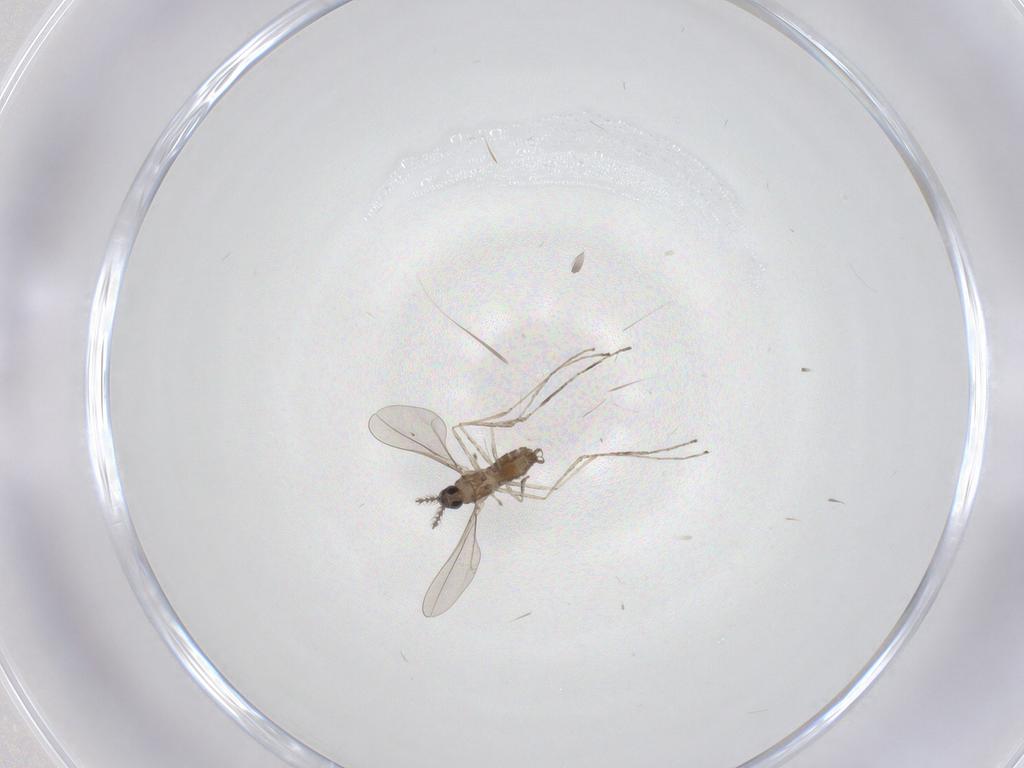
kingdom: Animalia
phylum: Arthropoda
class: Insecta
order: Diptera
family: Cecidomyiidae
